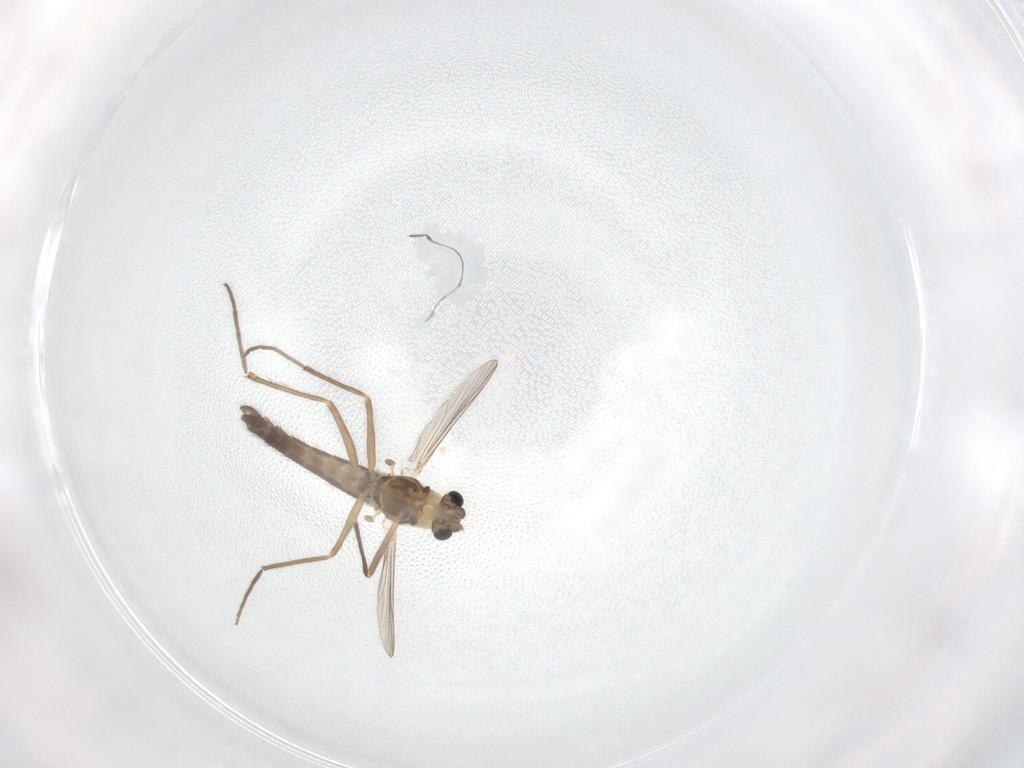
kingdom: Animalia
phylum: Arthropoda
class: Insecta
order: Diptera
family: Chironomidae
